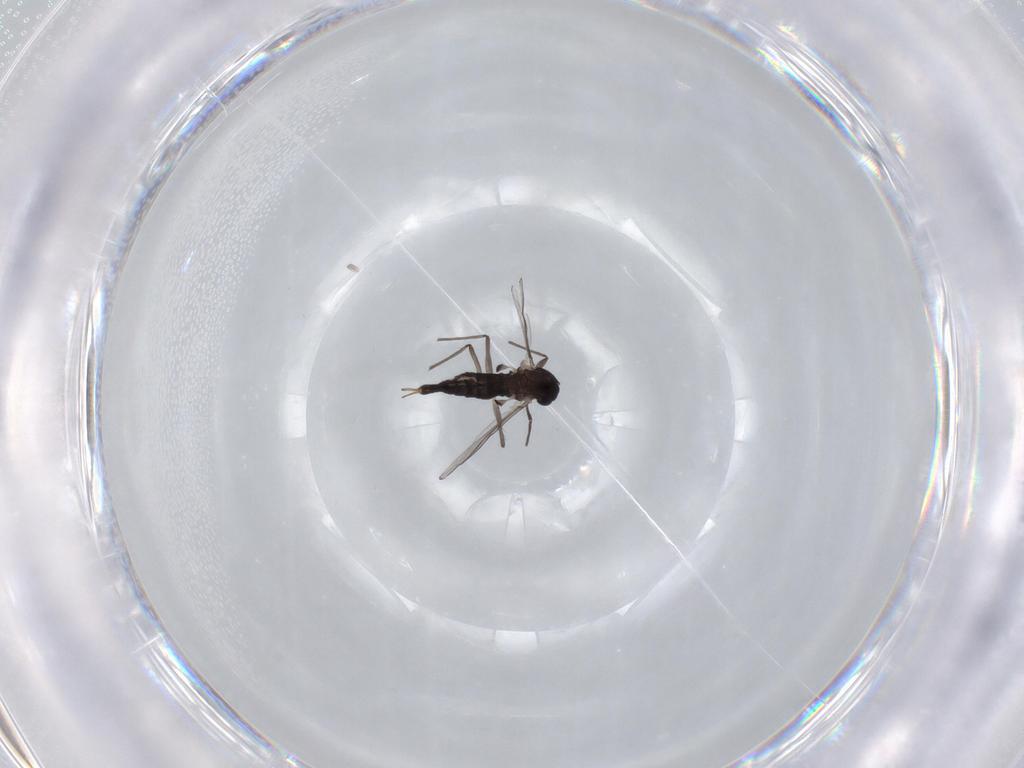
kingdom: Animalia
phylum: Arthropoda
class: Insecta
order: Diptera
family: Chironomidae
